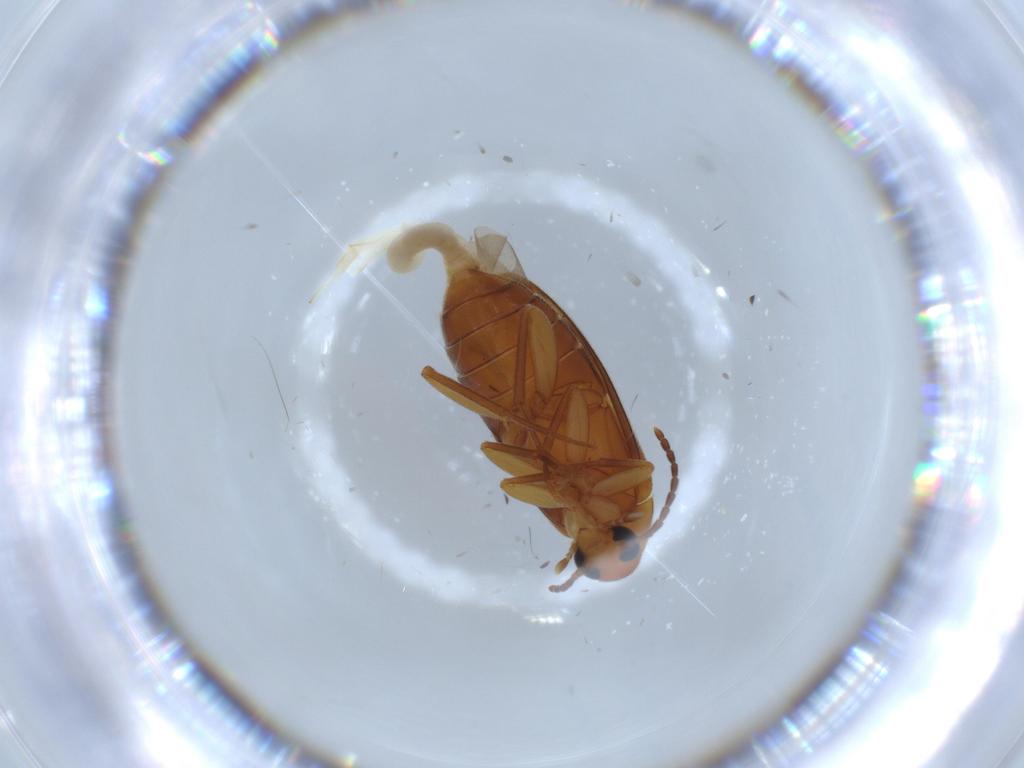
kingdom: Animalia
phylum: Arthropoda
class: Insecta
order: Coleoptera
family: Scraptiidae
